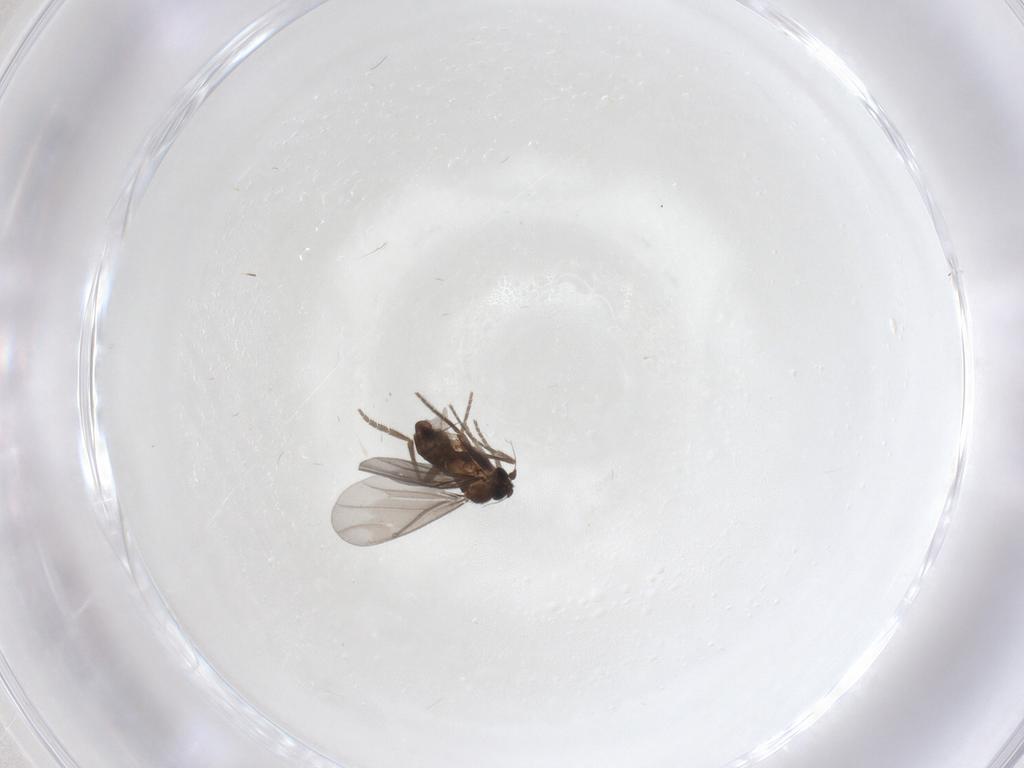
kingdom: Animalia
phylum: Arthropoda
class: Insecta
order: Diptera
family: Phoridae
